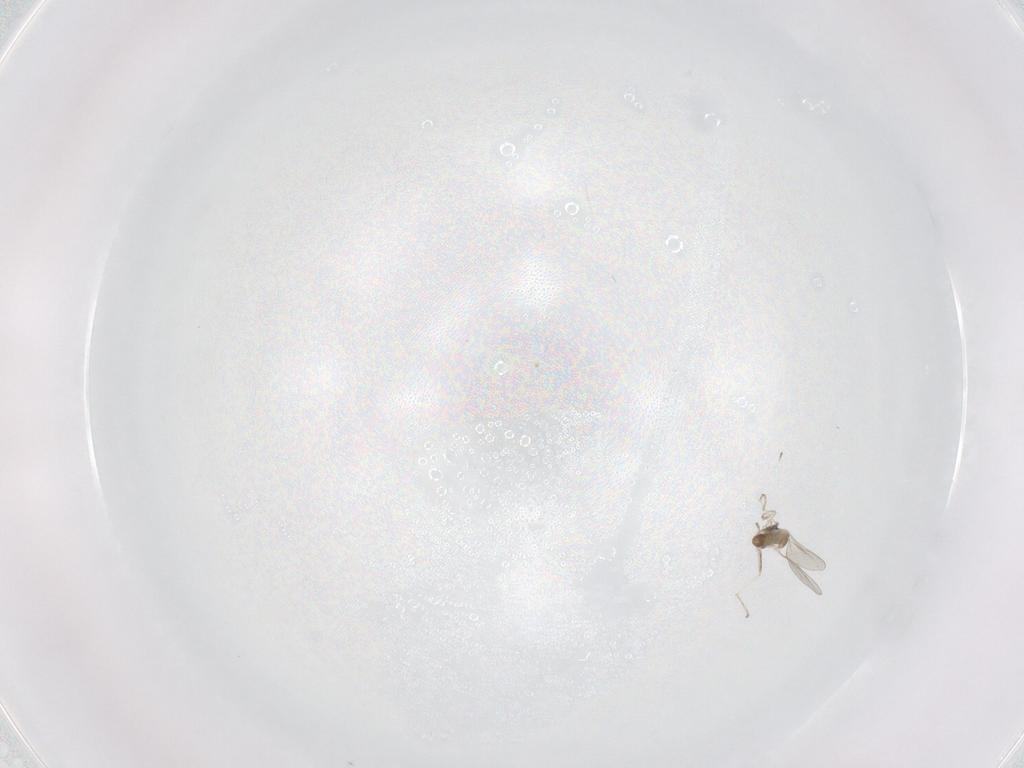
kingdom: Animalia
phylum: Arthropoda
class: Insecta
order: Diptera
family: Cecidomyiidae
